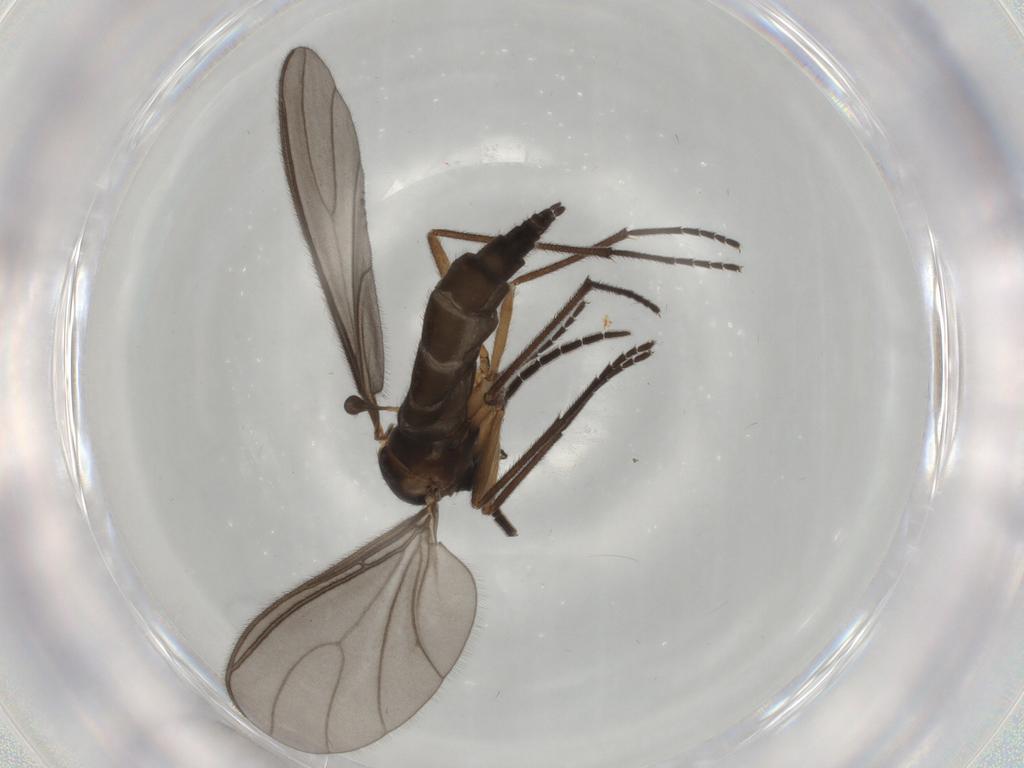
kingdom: Animalia
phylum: Arthropoda
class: Insecta
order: Diptera
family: Sciaridae
